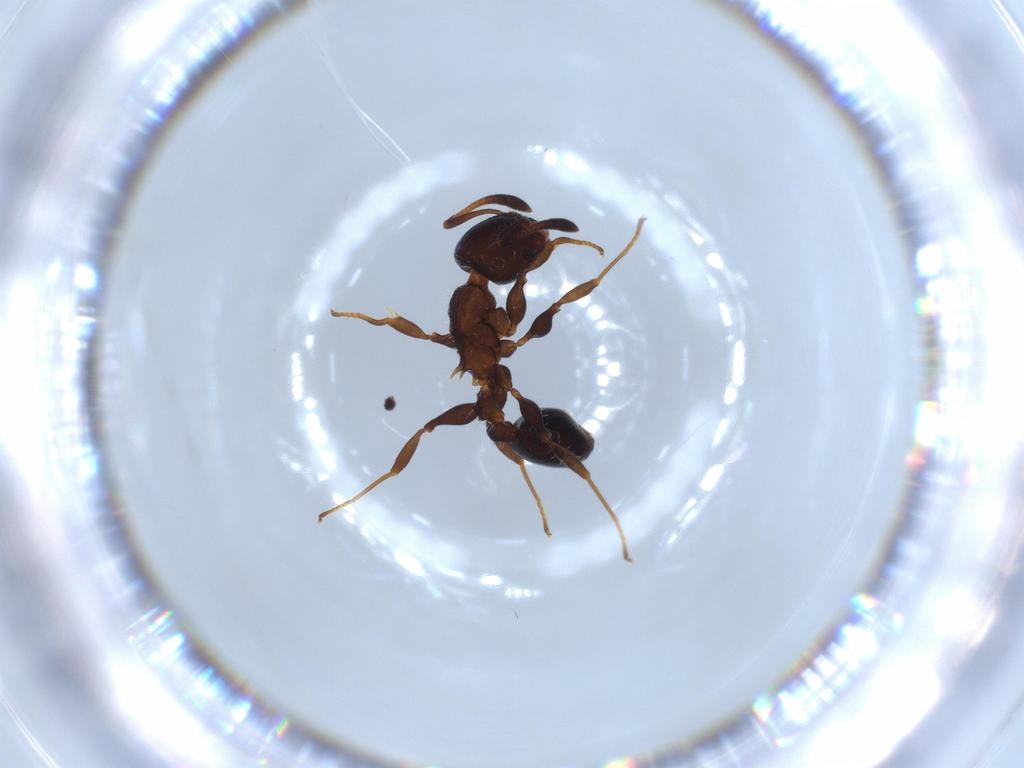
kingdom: Animalia
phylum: Arthropoda
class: Insecta
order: Hymenoptera
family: Formicidae
